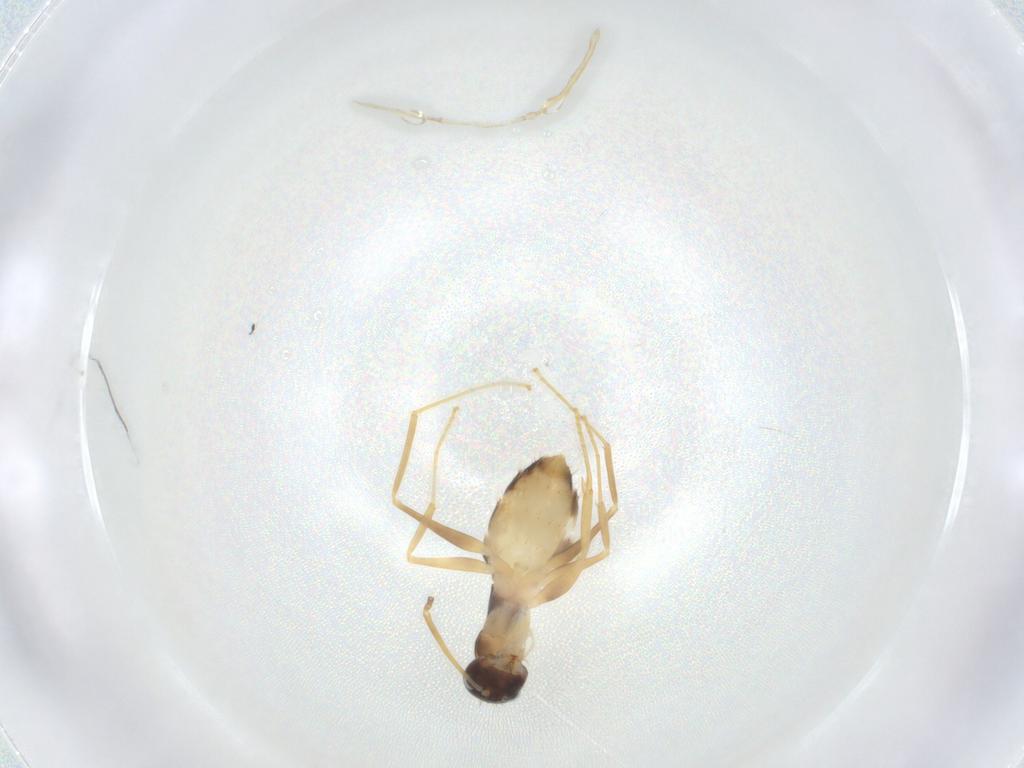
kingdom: Animalia
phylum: Arthropoda
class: Insecta
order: Hymenoptera
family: Formicidae
